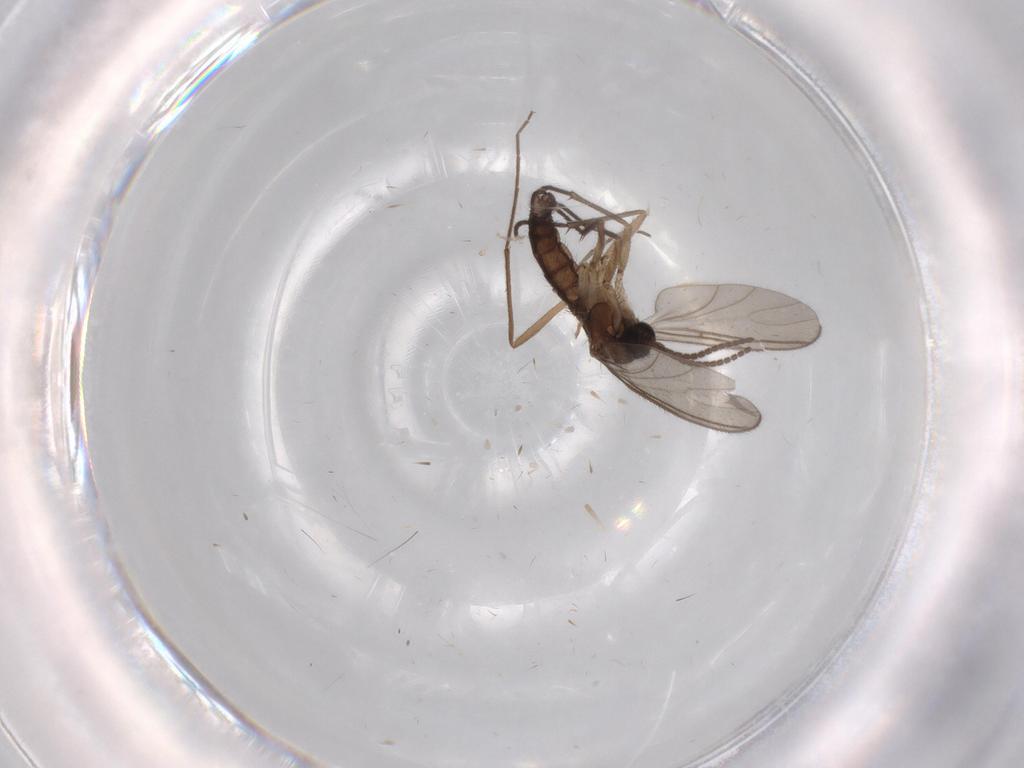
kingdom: Animalia
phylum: Arthropoda
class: Insecta
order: Diptera
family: Sciaridae
